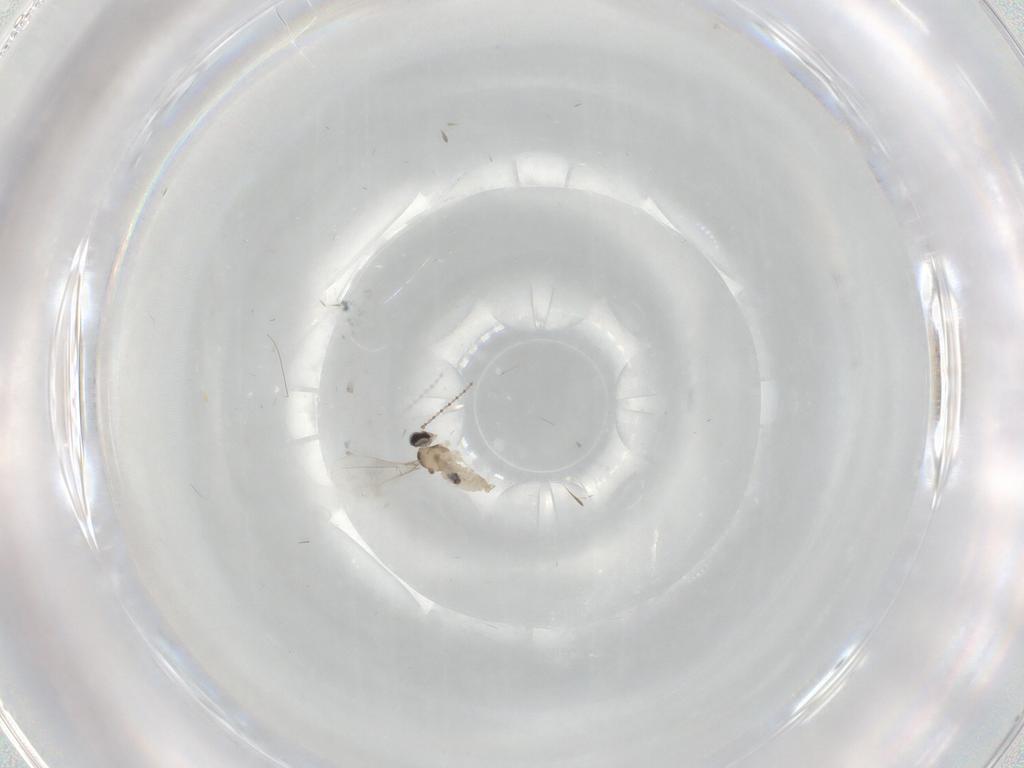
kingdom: Animalia
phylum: Arthropoda
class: Insecta
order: Diptera
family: Cecidomyiidae
